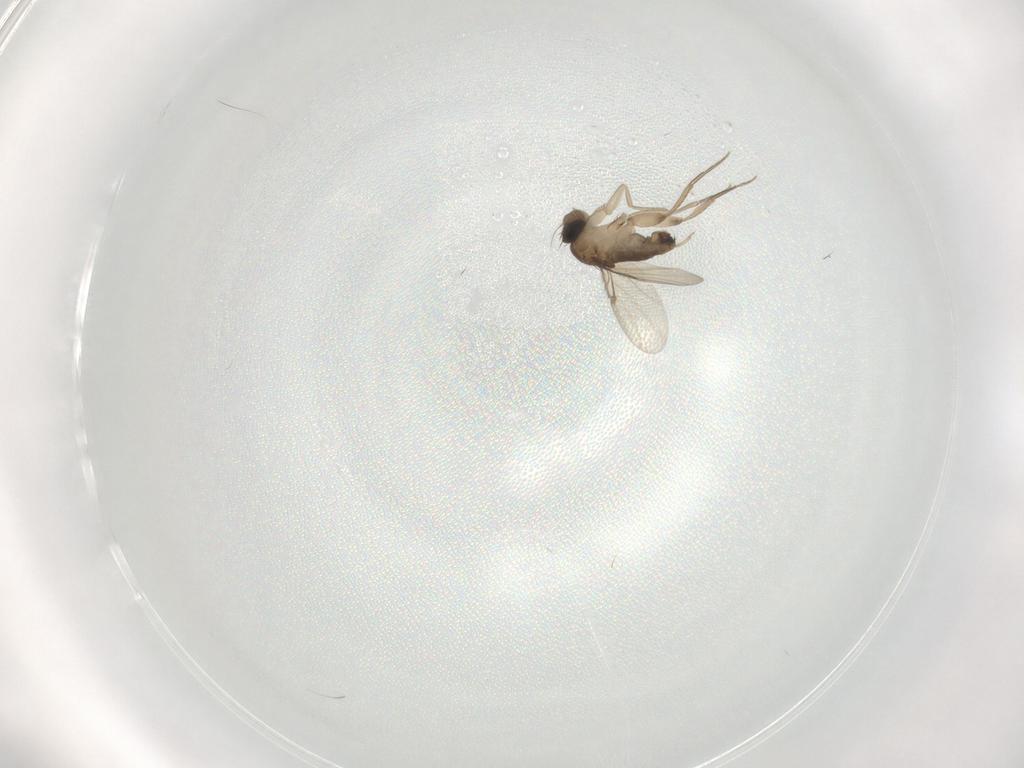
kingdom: Animalia
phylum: Arthropoda
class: Insecta
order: Diptera
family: Phoridae
